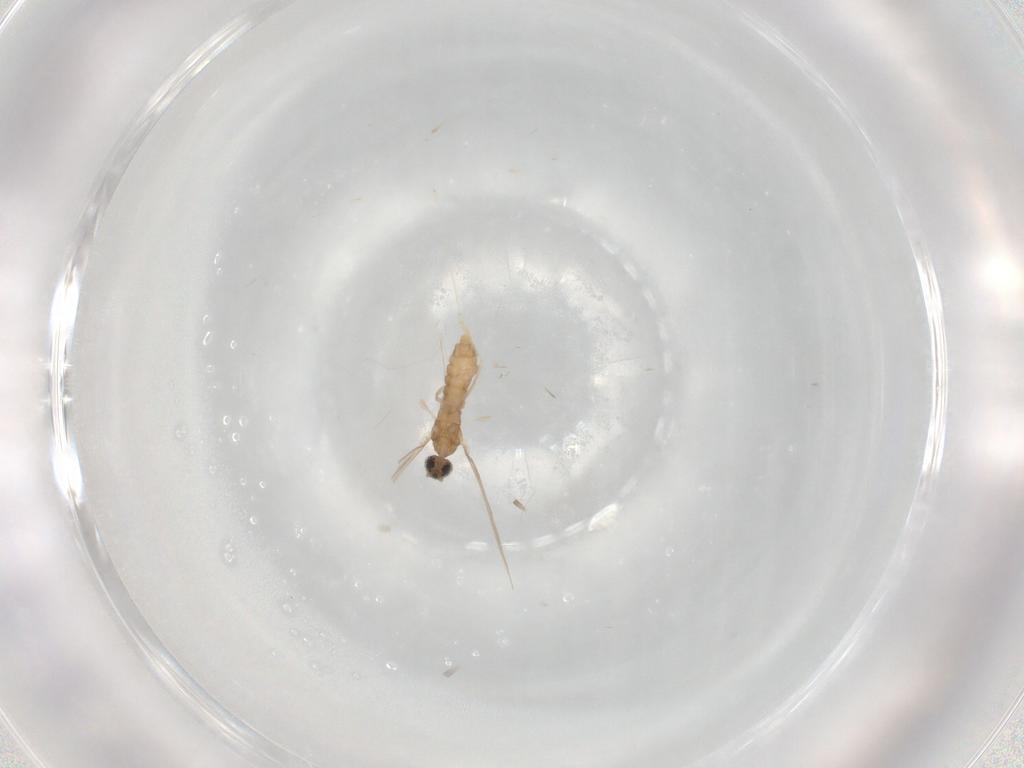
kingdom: Animalia
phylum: Arthropoda
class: Insecta
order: Diptera
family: Cecidomyiidae
